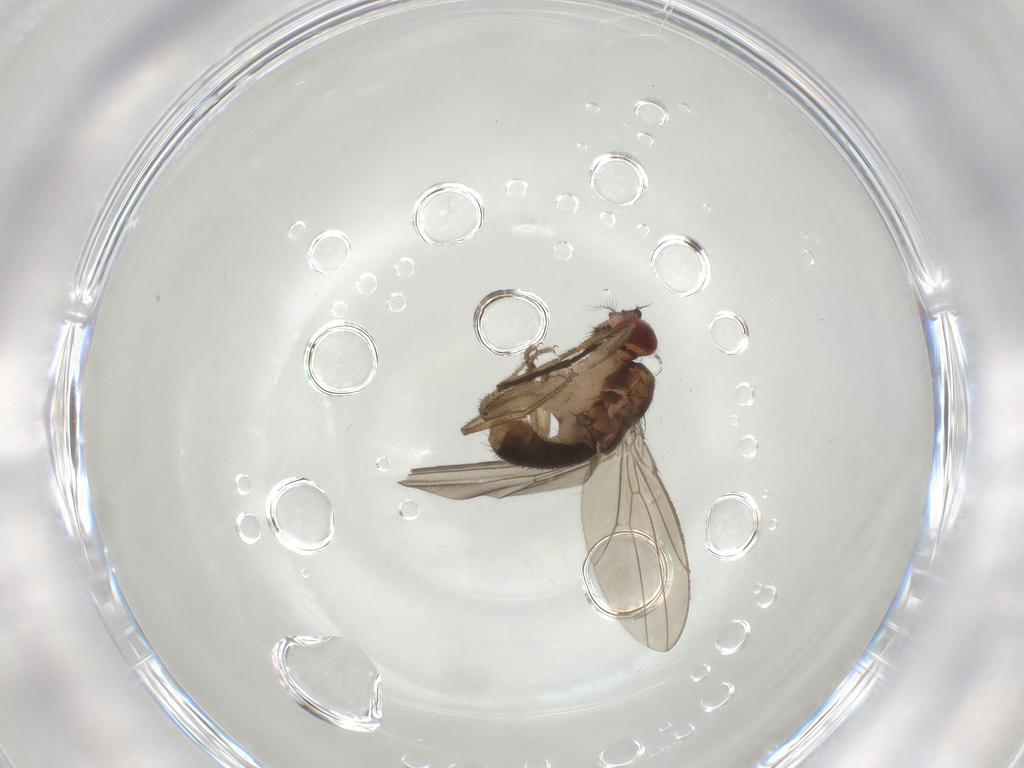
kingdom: Animalia
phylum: Arthropoda
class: Insecta
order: Diptera
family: Drosophilidae
